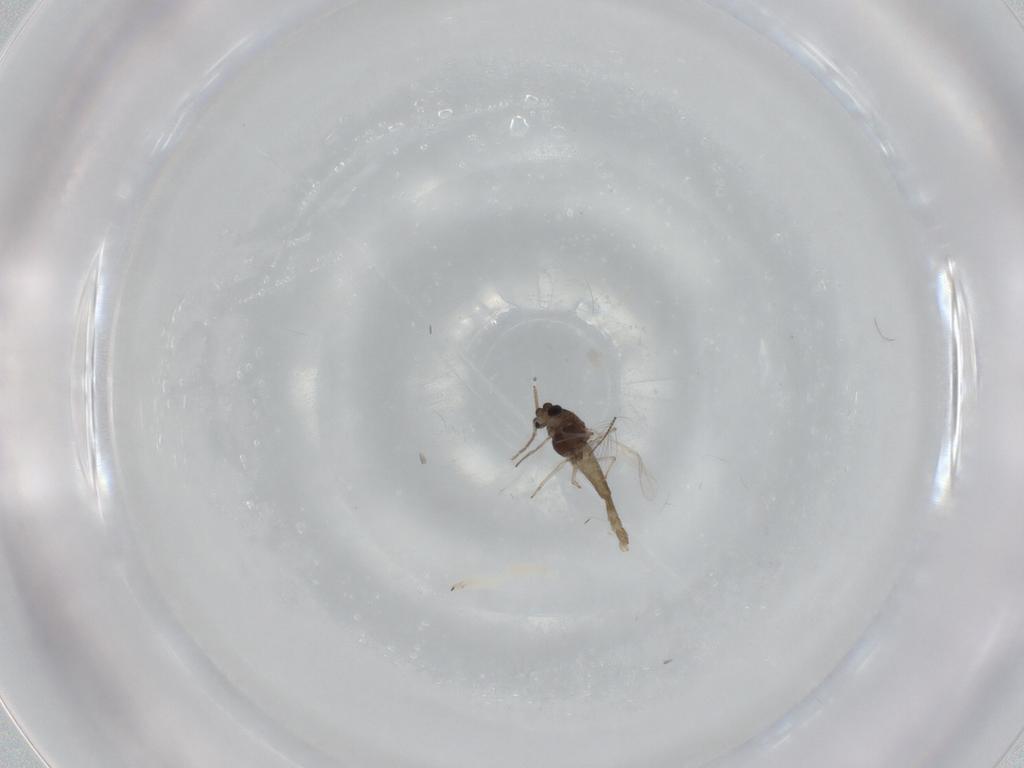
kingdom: Animalia
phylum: Arthropoda
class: Insecta
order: Diptera
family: Chironomidae
